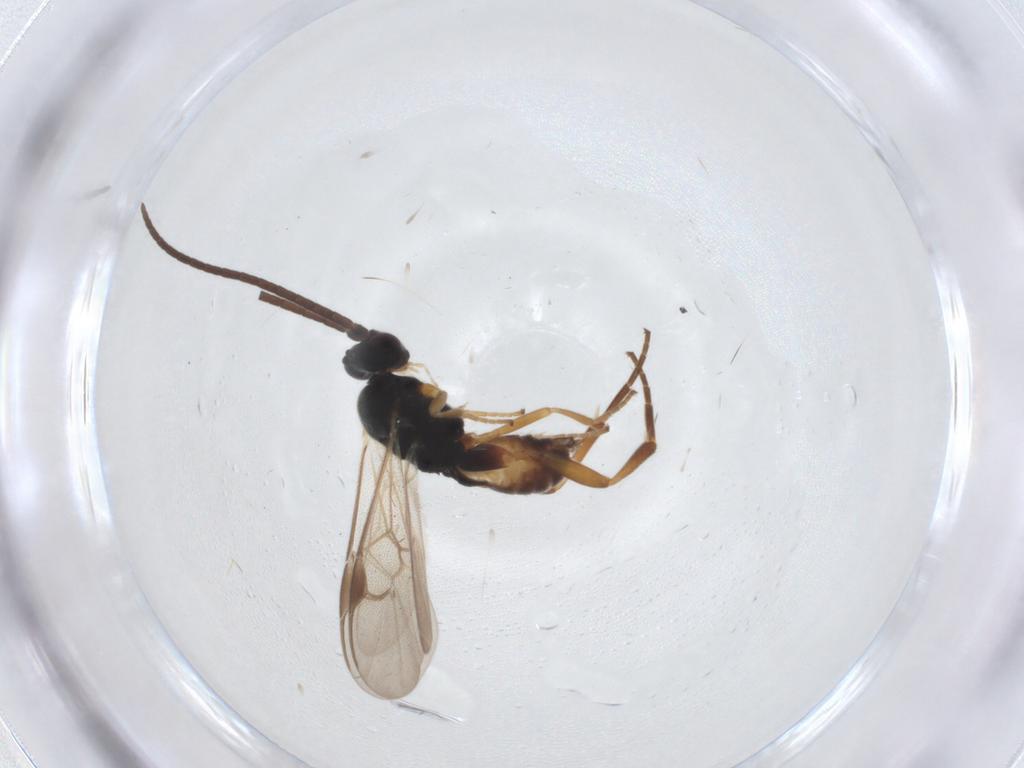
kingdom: Animalia
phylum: Arthropoda
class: Insecta
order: Hymenoptera
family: Braconidae
